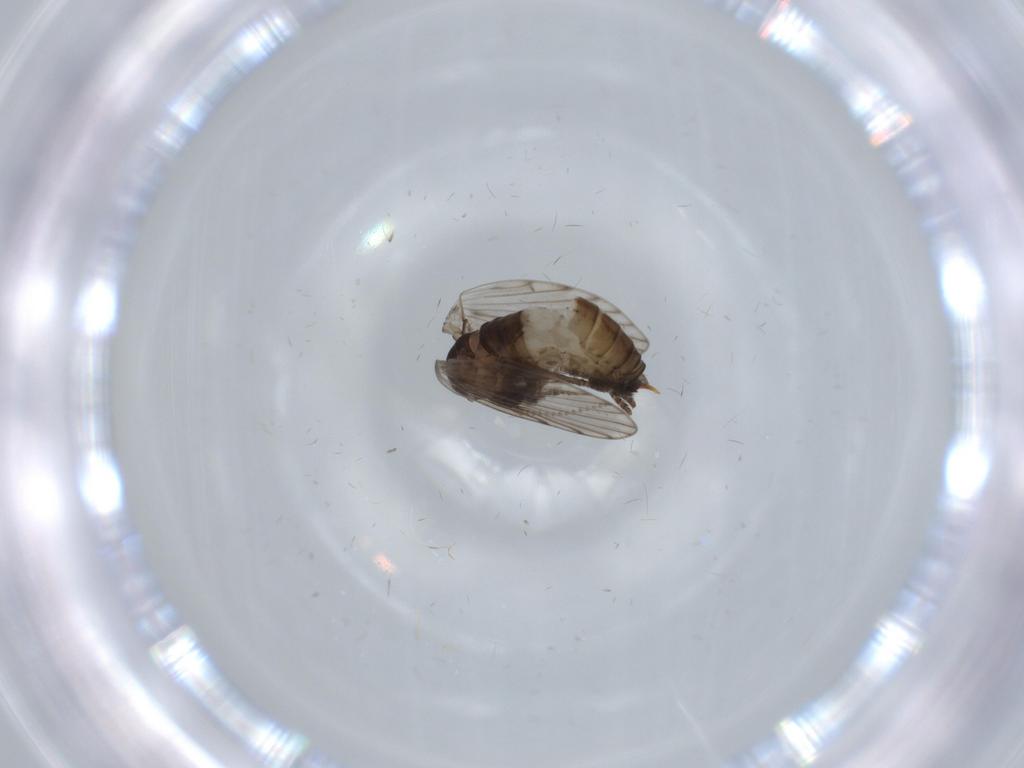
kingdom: Animalia
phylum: Arthropoda
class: Insecta
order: Diptera
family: Psychodidae
